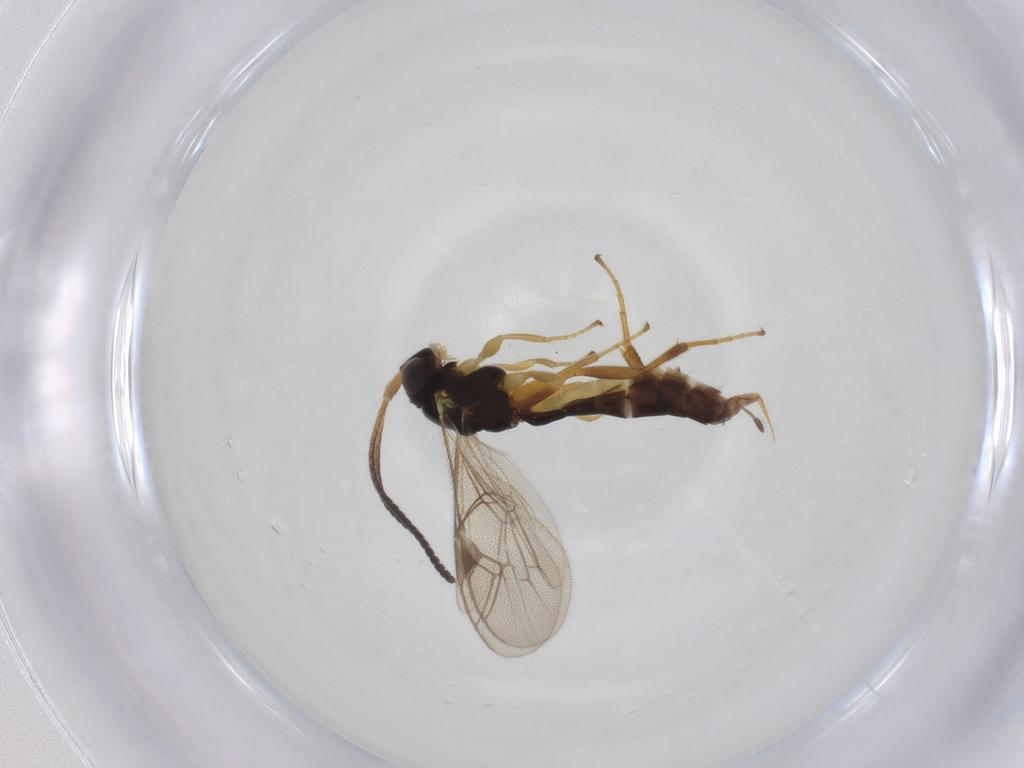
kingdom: Animalia
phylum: Arthropoda
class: Insecta
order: Hymenoptera
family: Ichneumonidae
